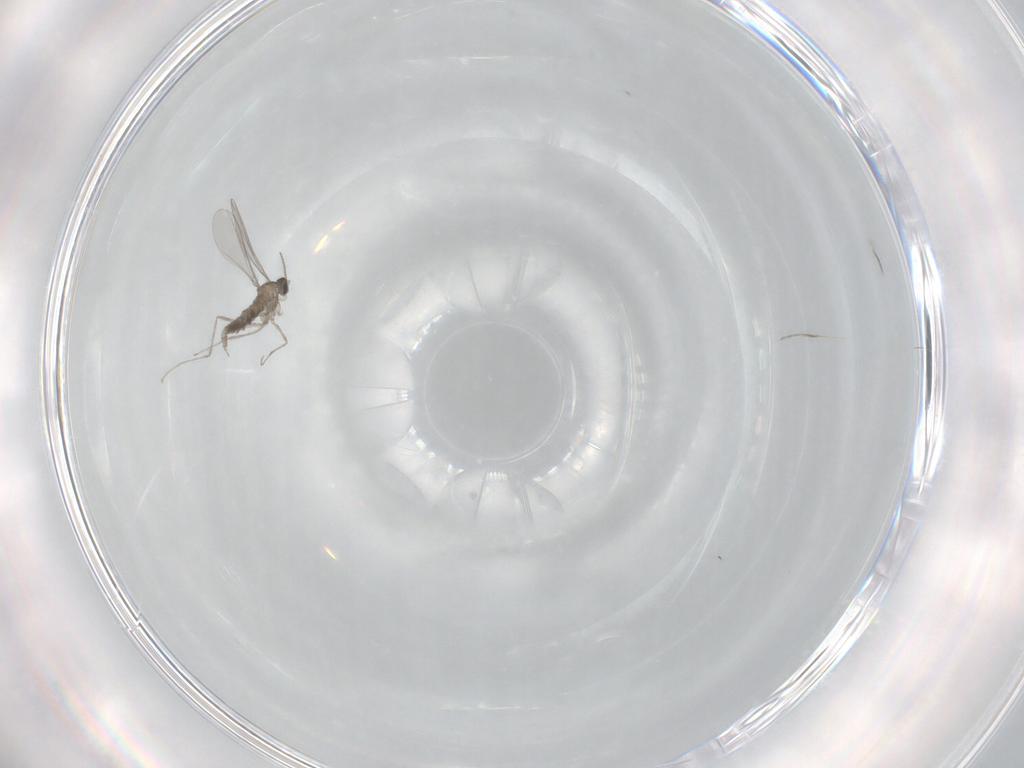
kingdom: Animalia
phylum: Arthropoda
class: Insecta
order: Diptera
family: Phoridae
